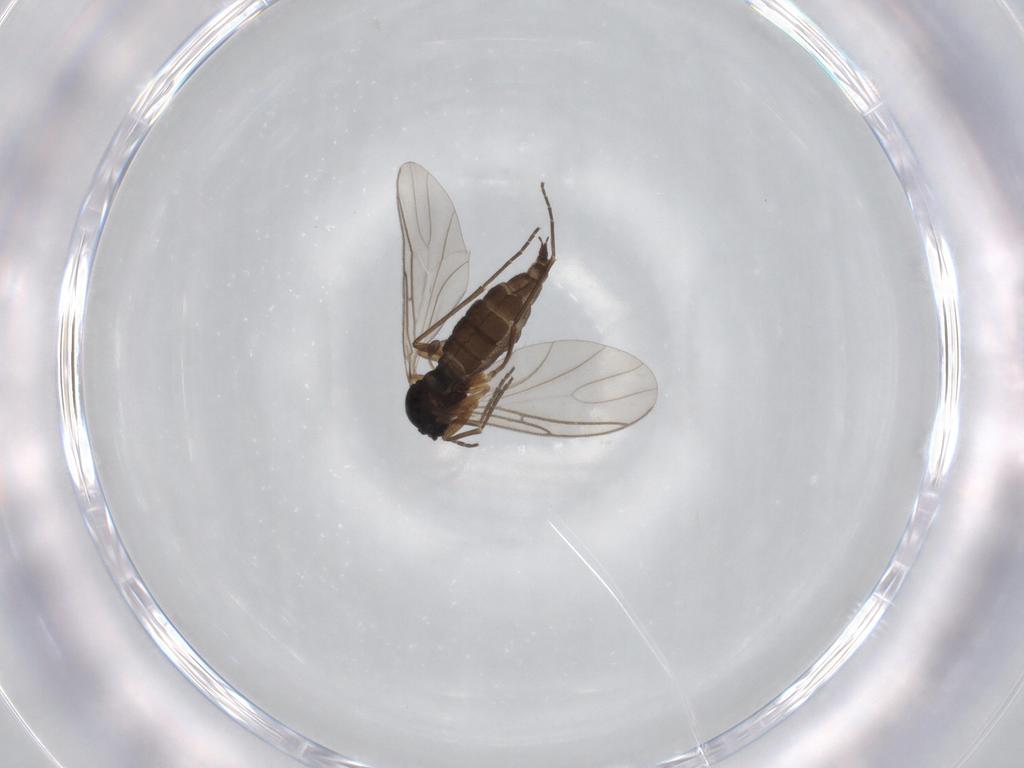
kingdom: Animalia
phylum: Arthropoda
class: Insecta
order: Diptera
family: Sciaridae
